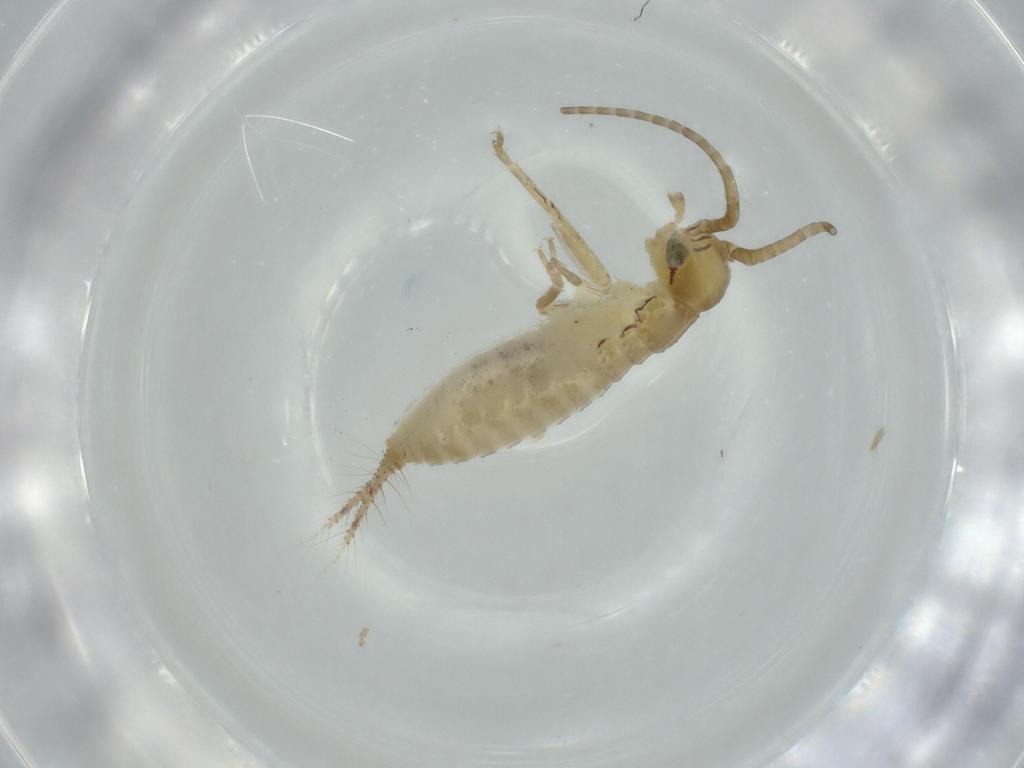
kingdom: Animalia
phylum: Arthropoda
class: Insecta
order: Orthoptera
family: Gryllidae
